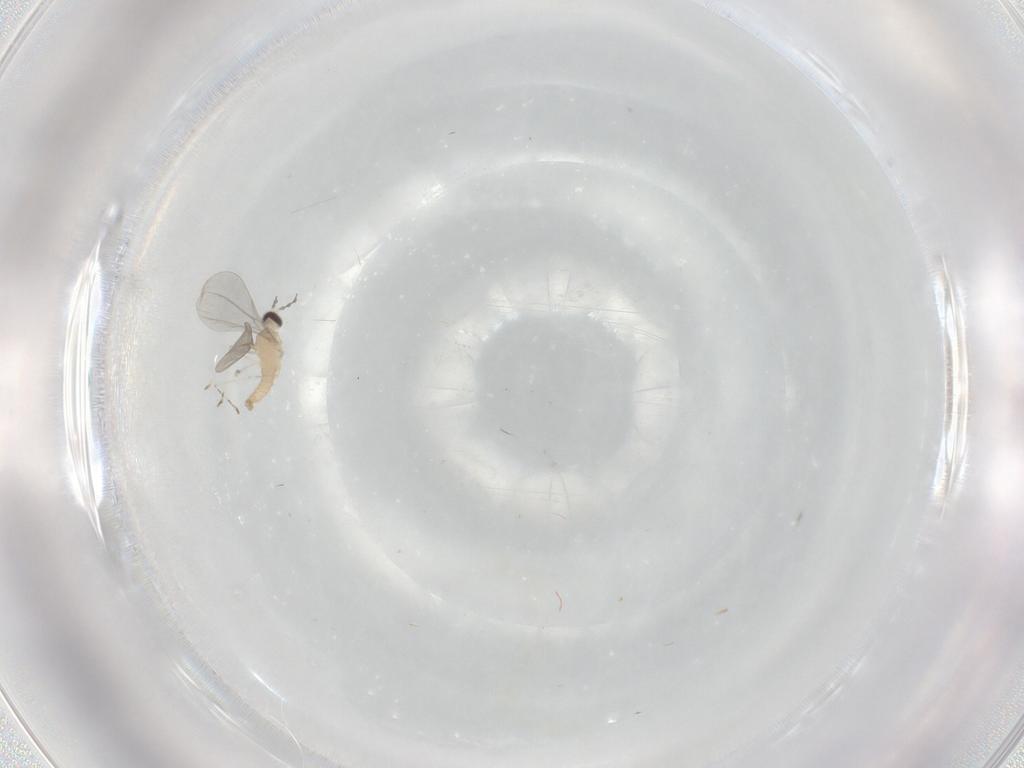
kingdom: Animalia
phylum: Arthropoda
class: Insecta
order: Diptera
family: Cecidomyiidae
